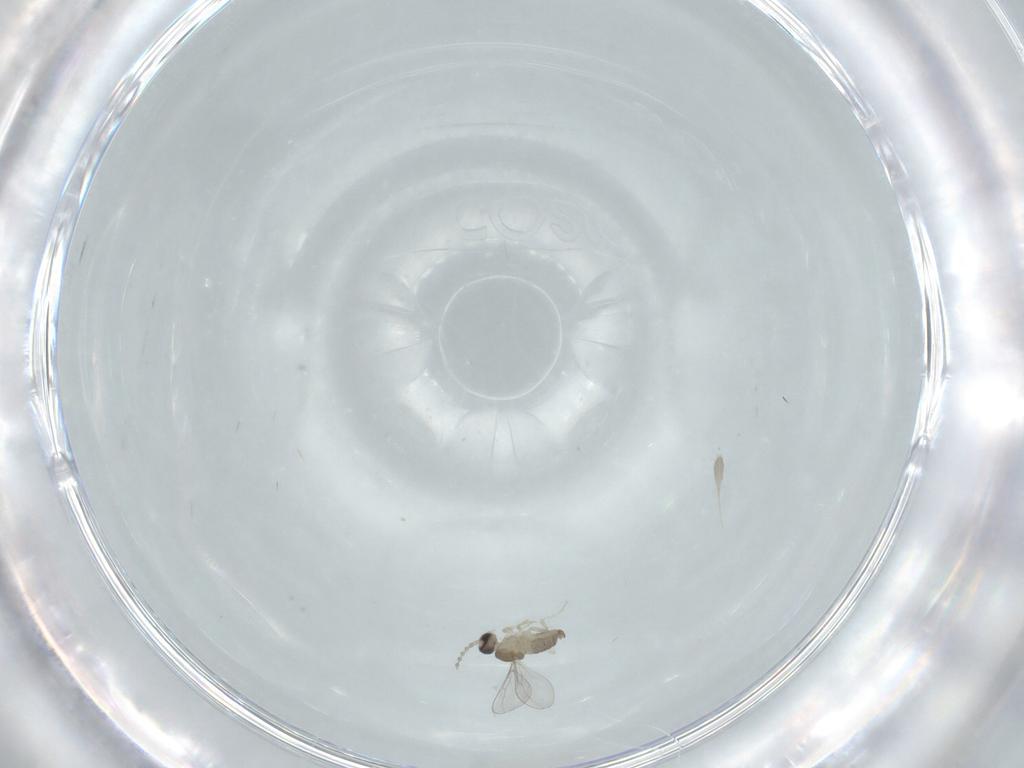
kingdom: Animalia
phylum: Arthropoda
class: Insecta
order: Diptera
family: Cecidomyiidae
